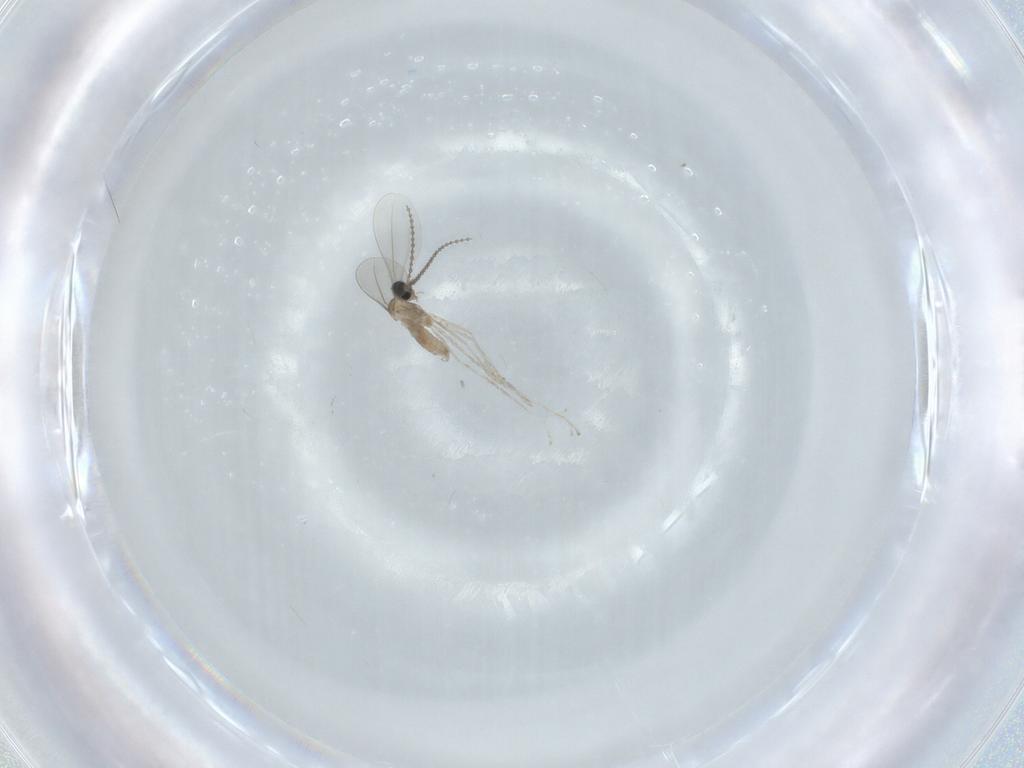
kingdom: Animalia
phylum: Arthropoda
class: Insecta
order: Diptera
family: Cecidomyiidae
